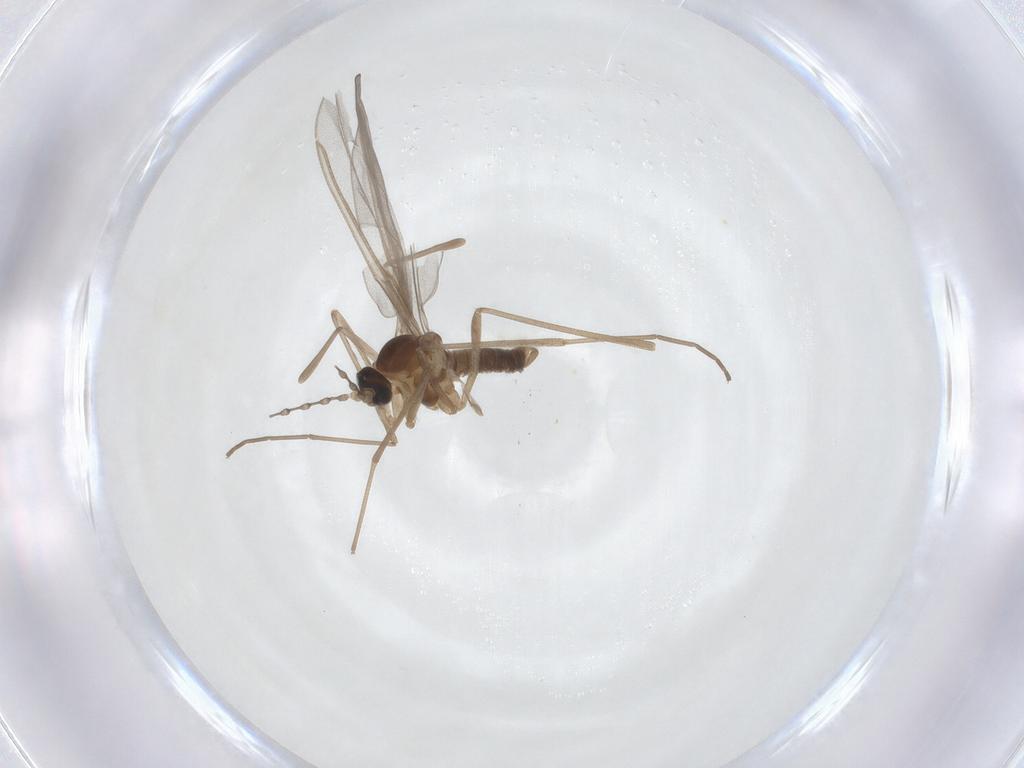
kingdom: Animalia
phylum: Arthropoda
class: Insecta
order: Diptera
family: Cecidomyiidae
